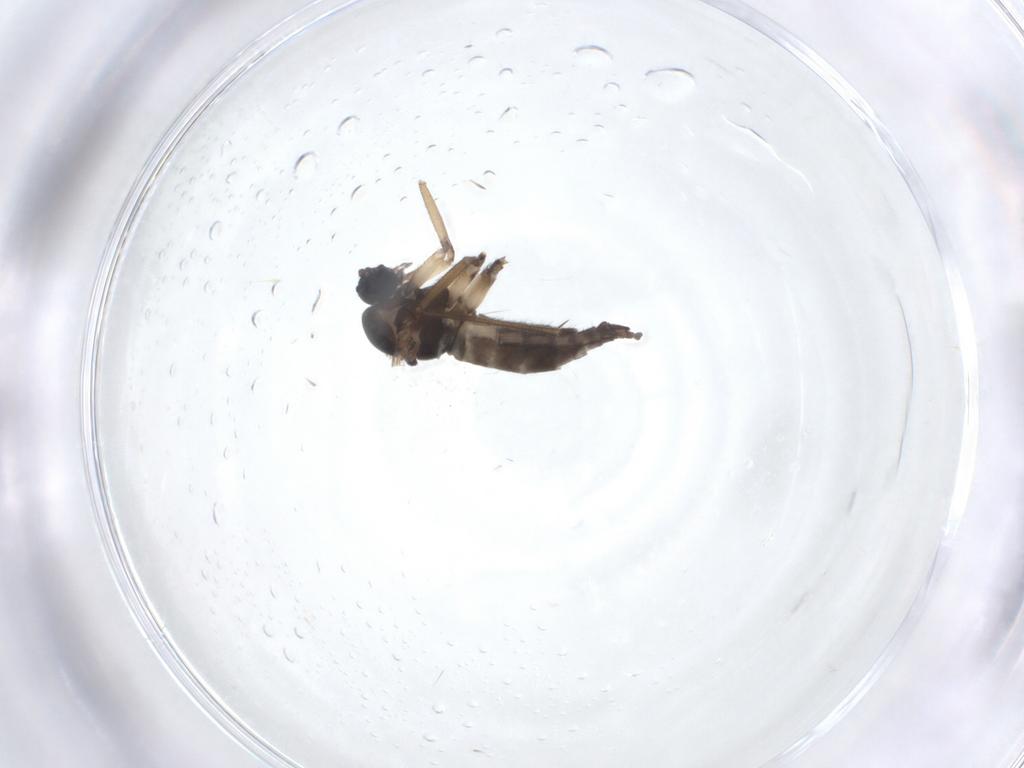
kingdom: Animalia
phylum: Arthropoda
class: Insecta
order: Diptera
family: Sciaridae
